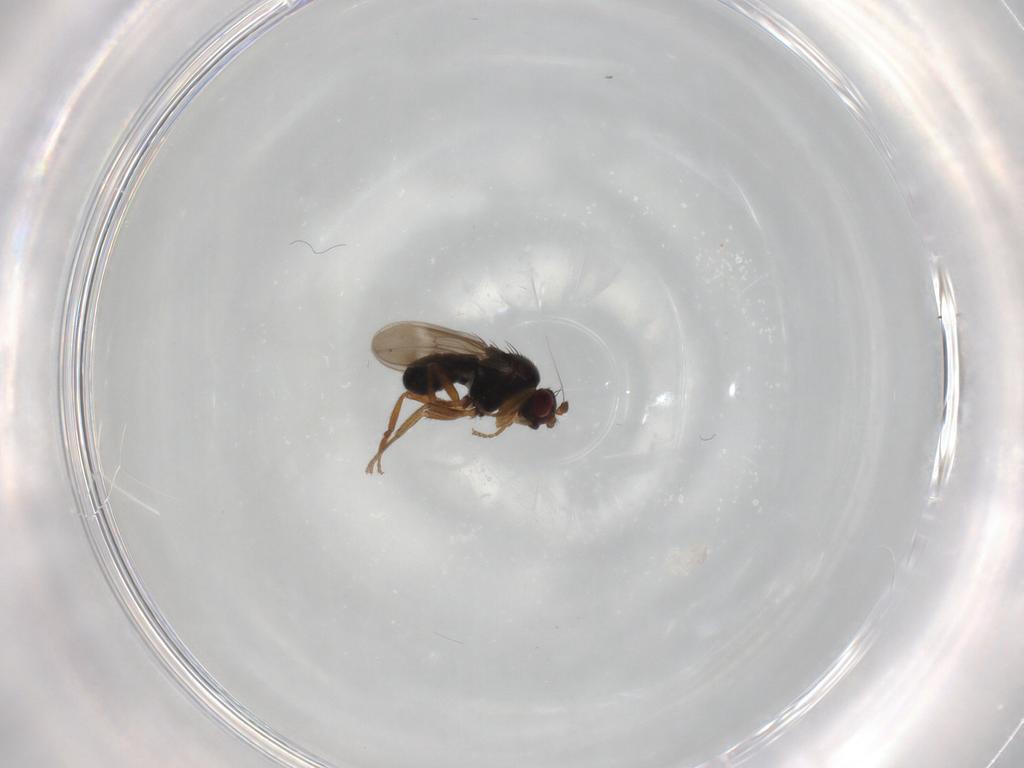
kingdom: Animalia
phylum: Arthropoda
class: Insecta
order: Diptera
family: Sphaeroceridae
